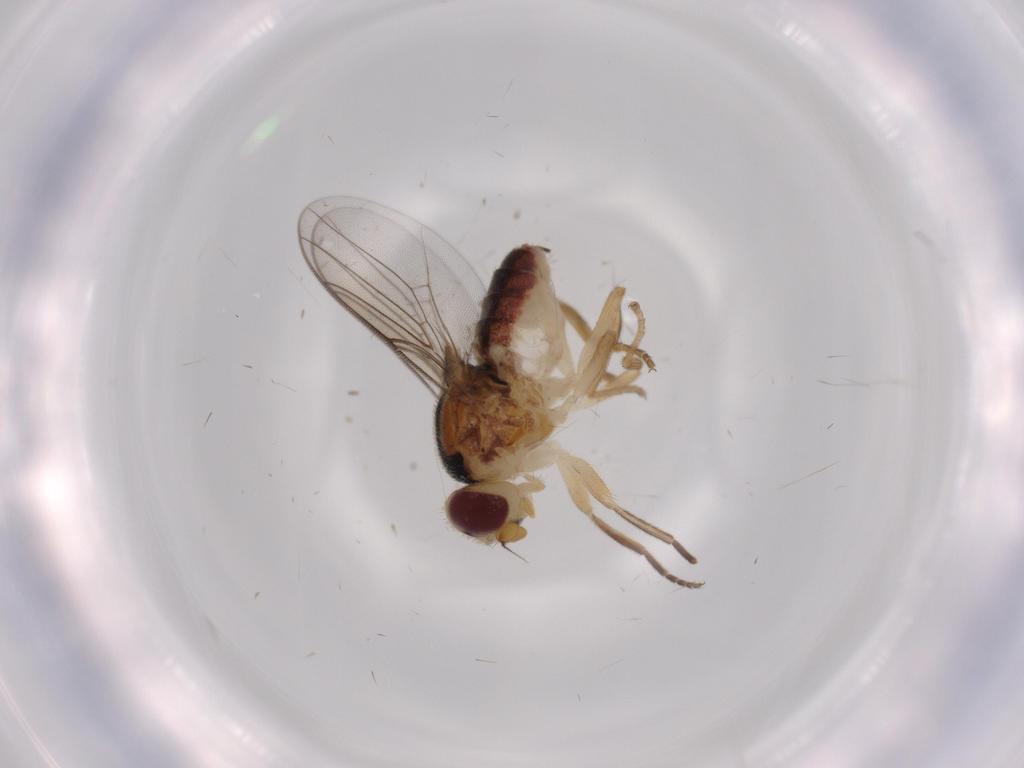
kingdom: Animalia
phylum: Arthropoda
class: Insecta
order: Diptera
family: Chloropidae
